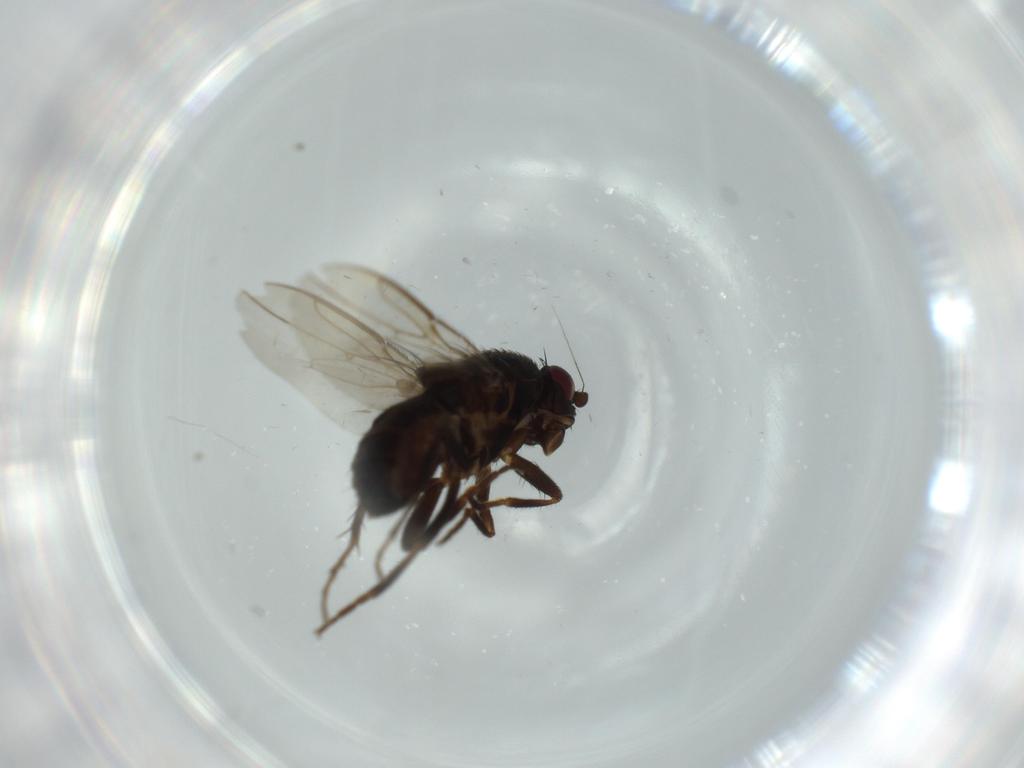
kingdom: Animalia
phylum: Arthropoda
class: Insecta
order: Diptera
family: Sphaeroceridae
